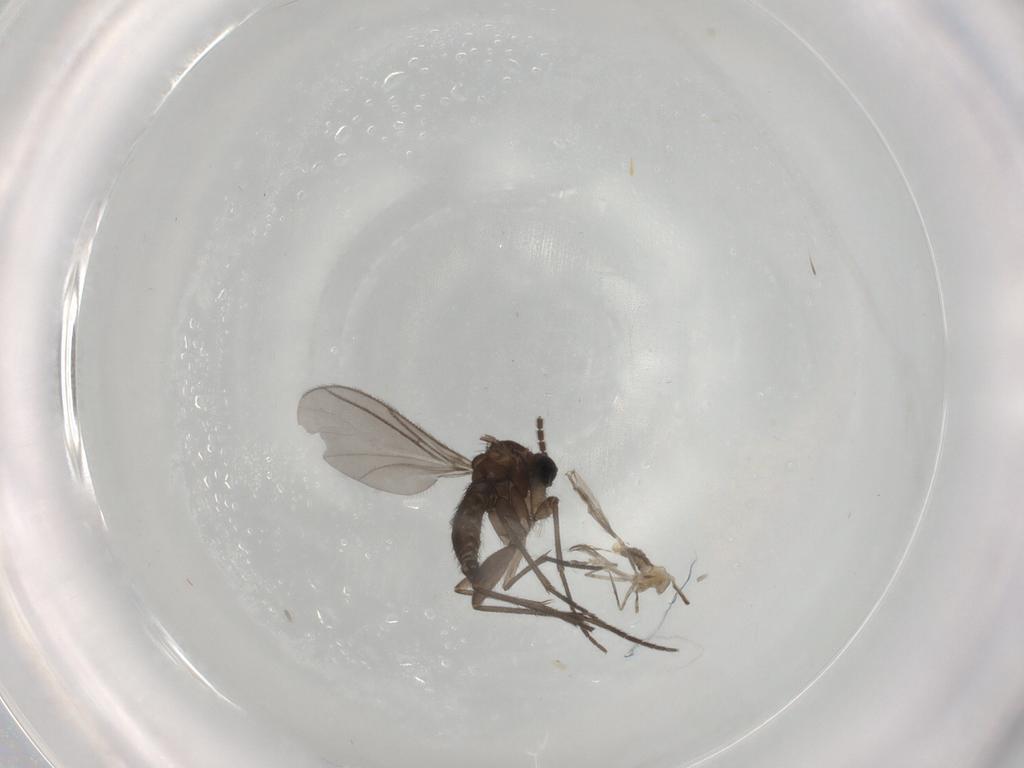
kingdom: Animalia
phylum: Arthropoda
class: Insecta
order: Diptera
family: Sciaridae
